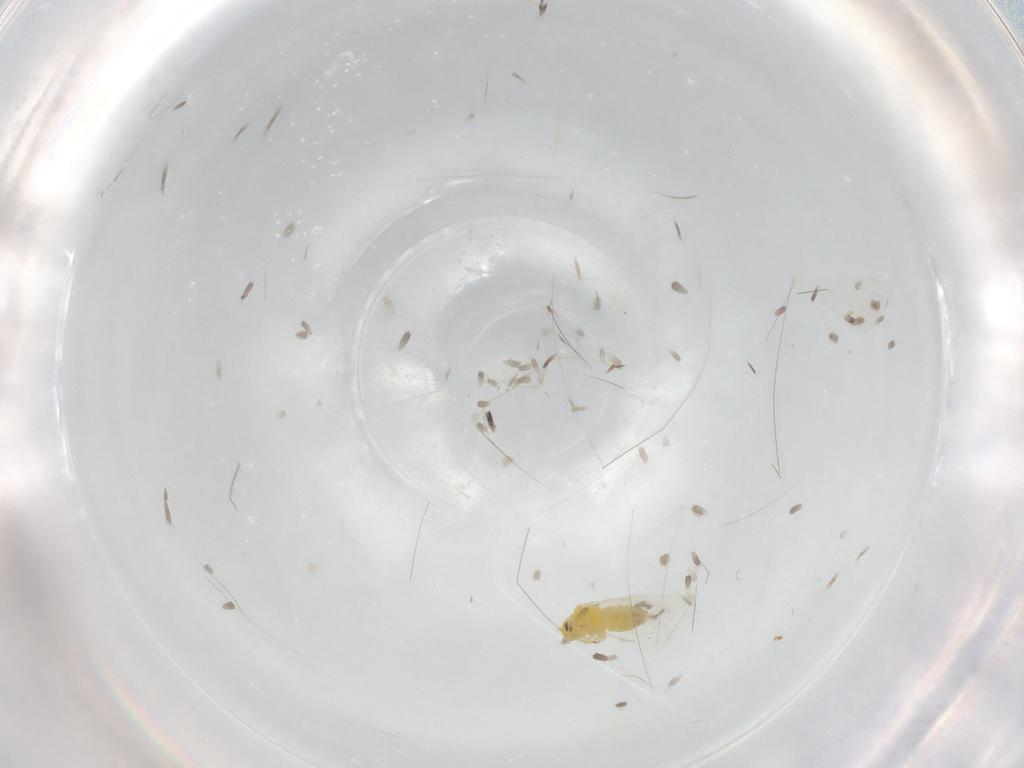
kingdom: Animalia
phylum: Arthropoda
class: Insecta
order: Hemiptera
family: Aleyrodidae
